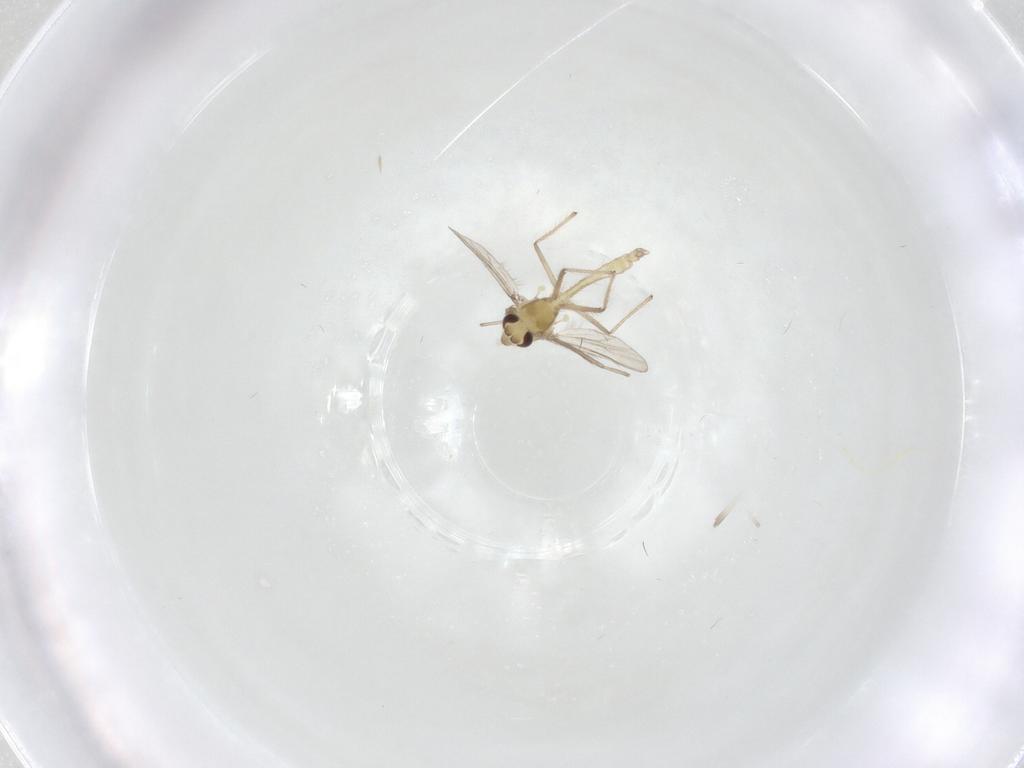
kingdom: Animalia
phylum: Arthropoda
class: Insecta
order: Diptera
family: Chironomidae
